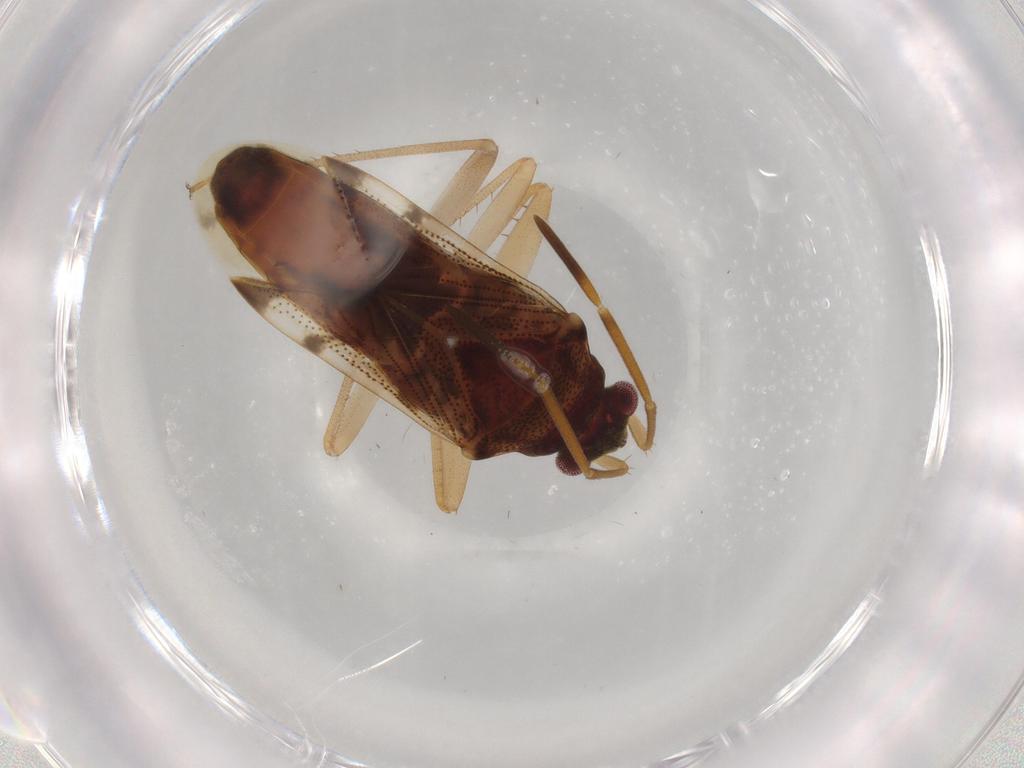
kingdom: Animalia
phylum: Arthropoda
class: Insecta
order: Hemiptera
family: Rhyparochromidae
